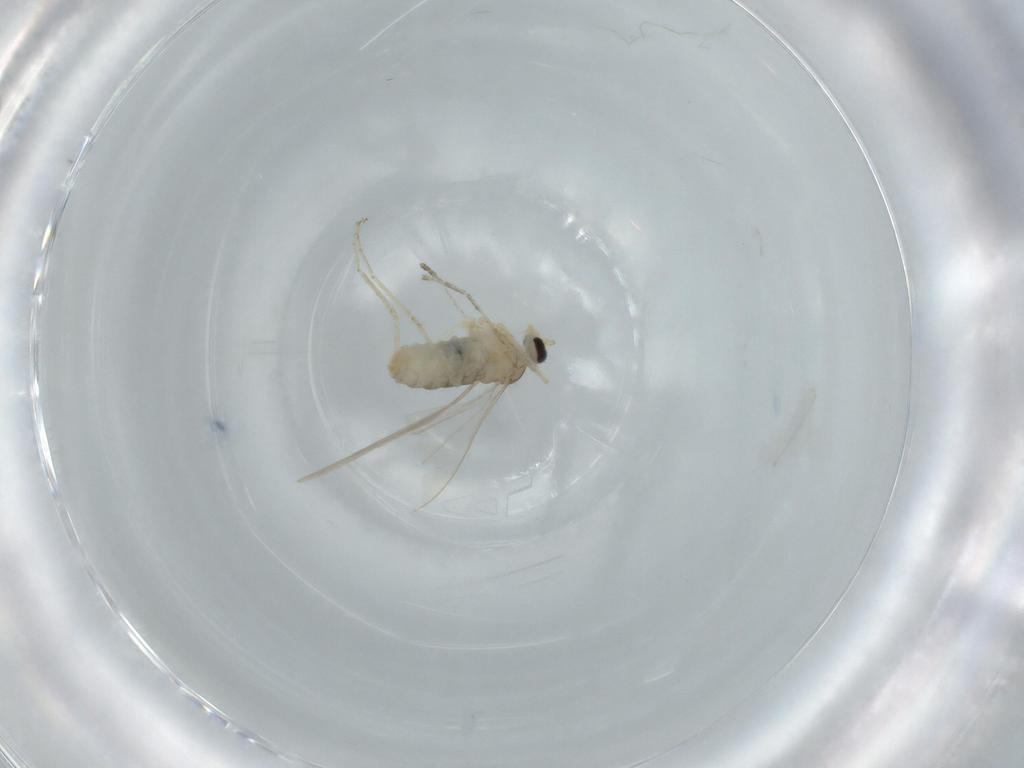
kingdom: Animalia
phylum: Arthropoda
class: Insecta
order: Diptera
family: Cecidomyiidae
